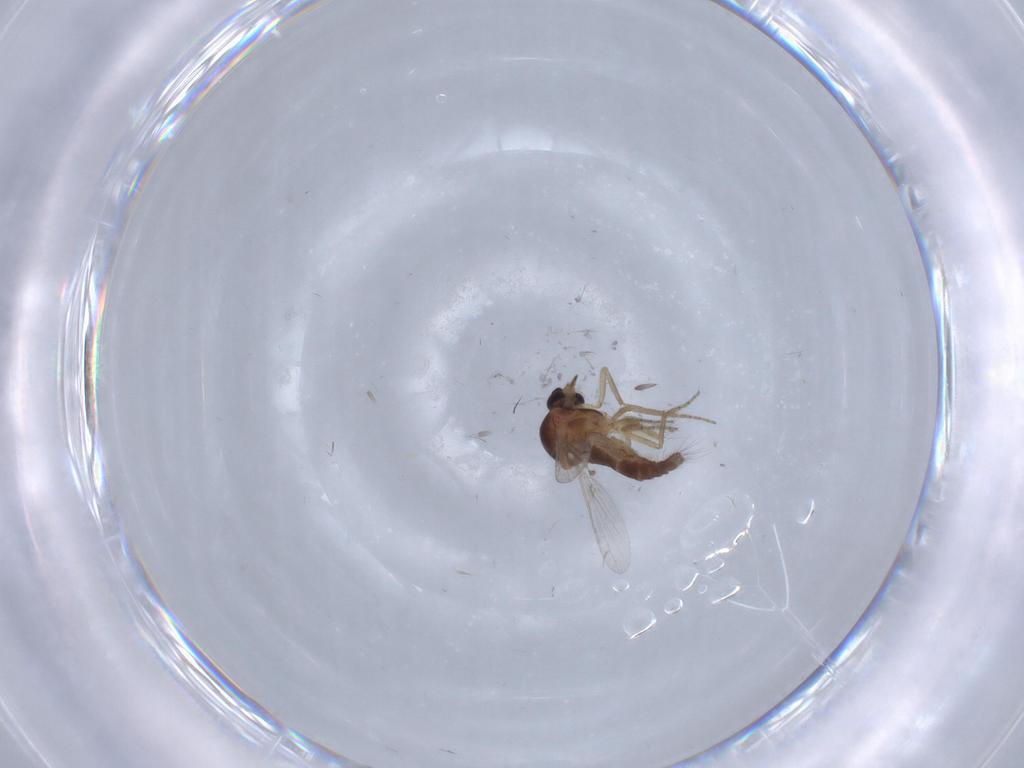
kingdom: Animalia
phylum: Arthropoda
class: Insecta
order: Diptera
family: Ceratopogonidae
